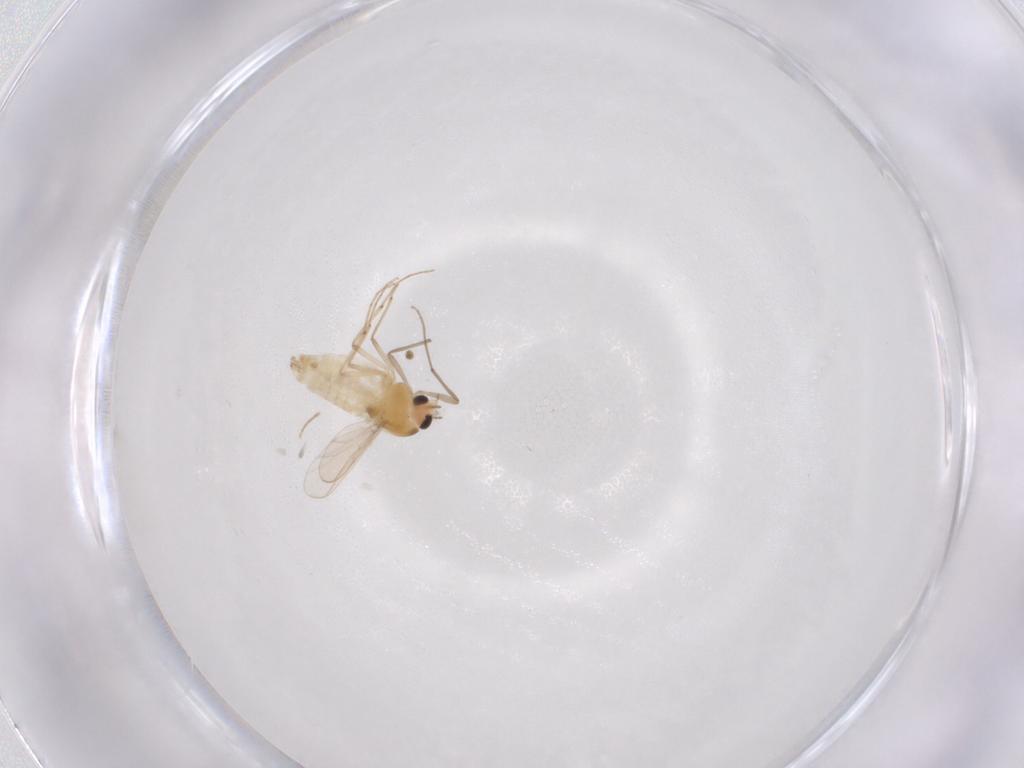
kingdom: Animalia
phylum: Arthropoda
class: Insecta
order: Diptera
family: Chironomidae
